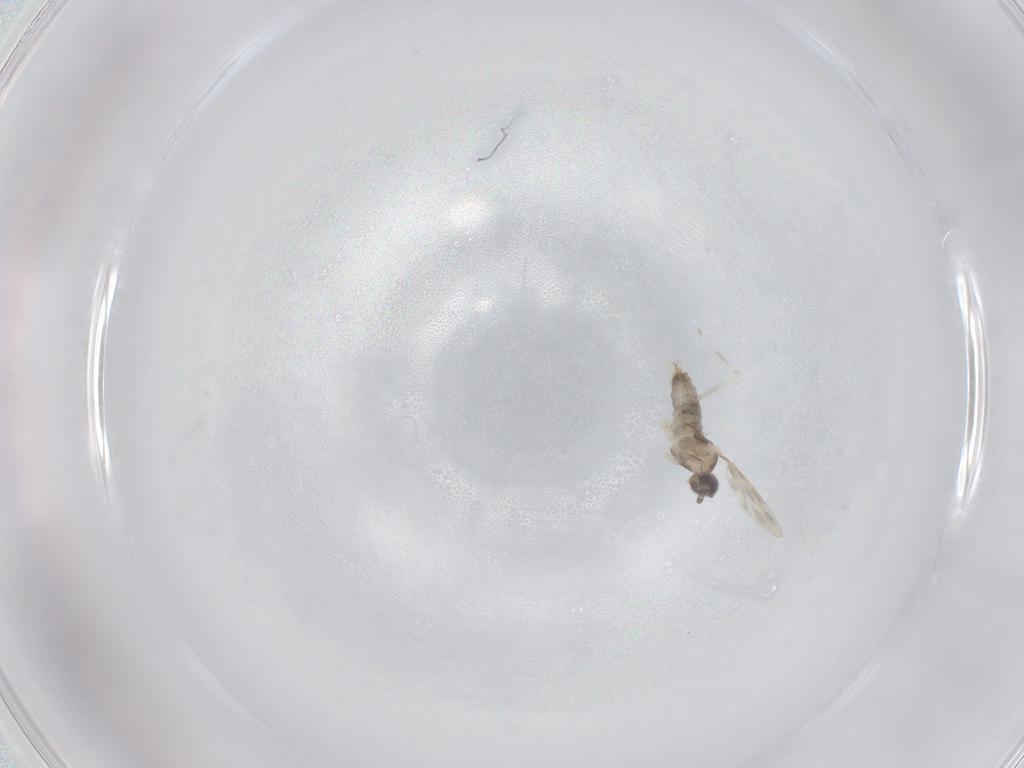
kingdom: Animalia
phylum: Arthropoda
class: Insecta
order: Diptera
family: Cecidomyiidae
